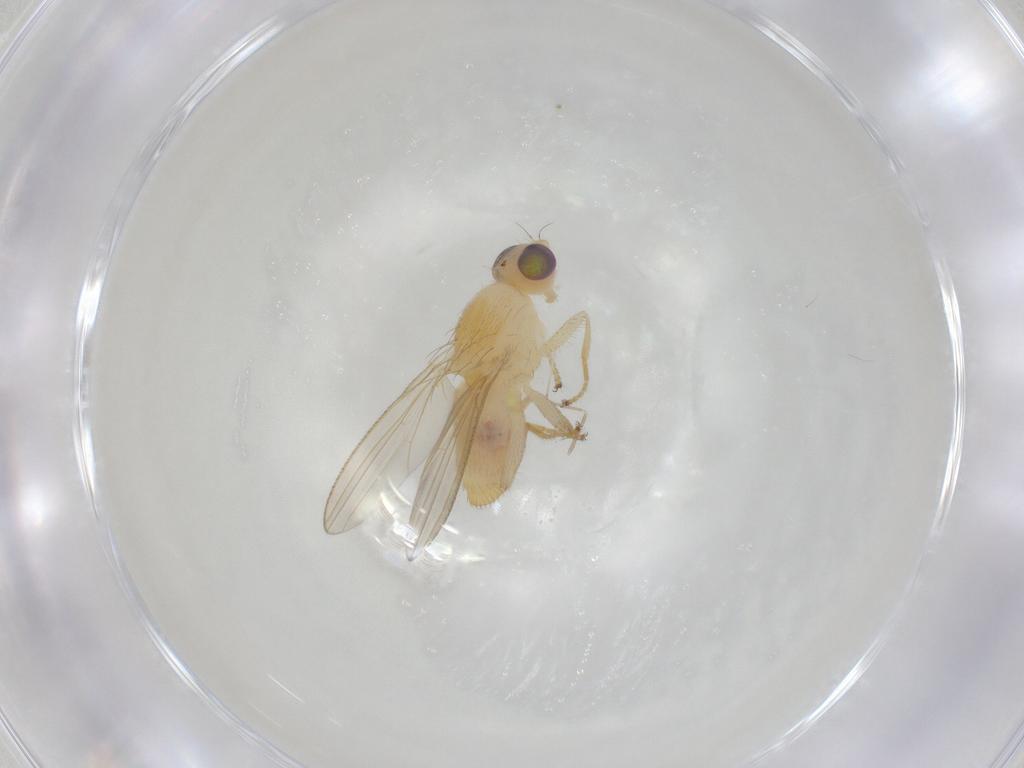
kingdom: Animalia
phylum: Arthropoda
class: Insecta
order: Diptera
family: Chyromyidae
